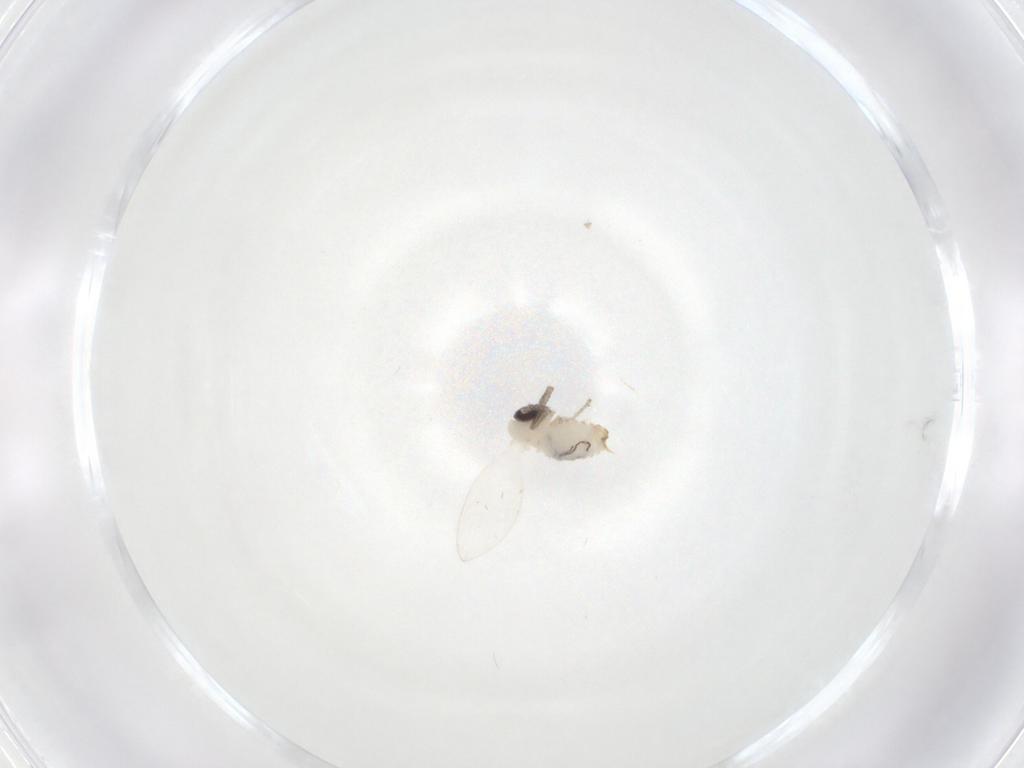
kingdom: Animalia
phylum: Arthropoda
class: Insecta
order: Diptera
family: Psychodidae
